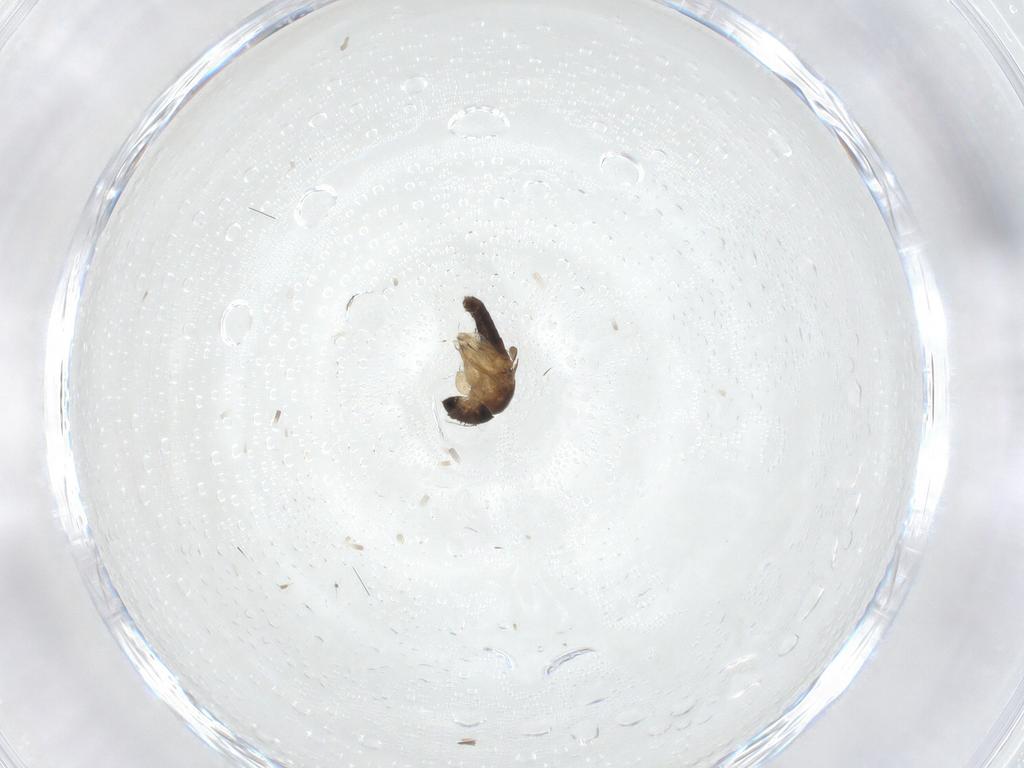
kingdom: Animalia
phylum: Arthropoda
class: Insecta
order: Diptera
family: Phoridae
